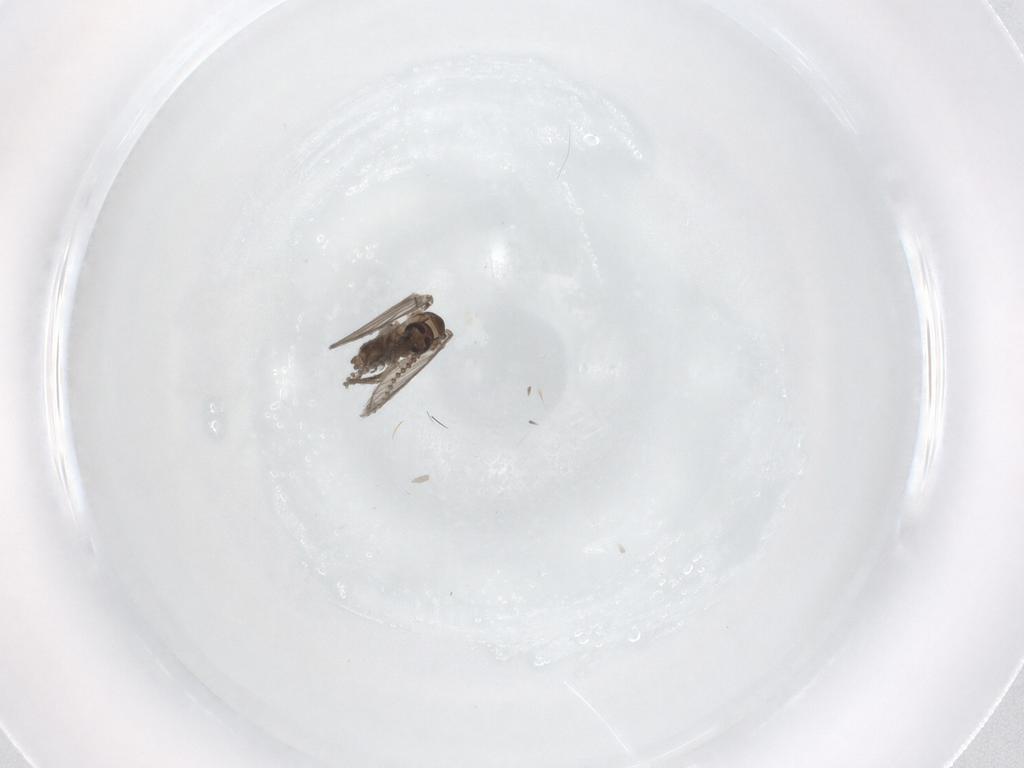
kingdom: Animalia
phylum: Arthropoda
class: Insecta
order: Diptera
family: Psychodidae
